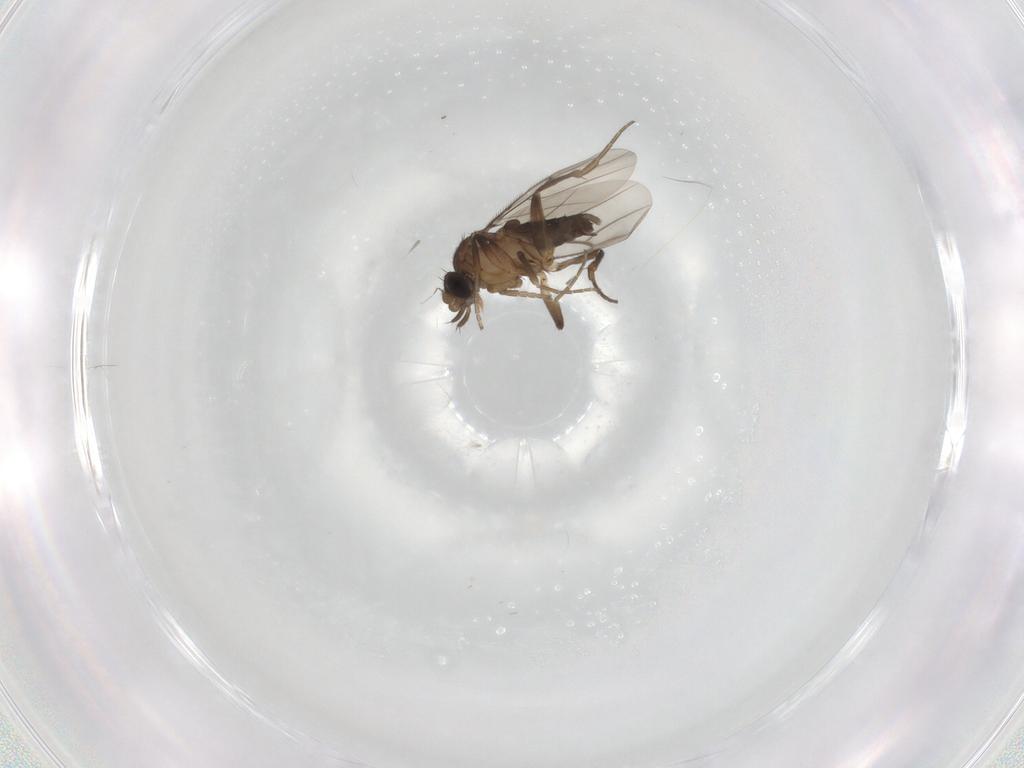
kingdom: Animalia
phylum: Arthropoda
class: Insecta
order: Diptera
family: Phoridae
